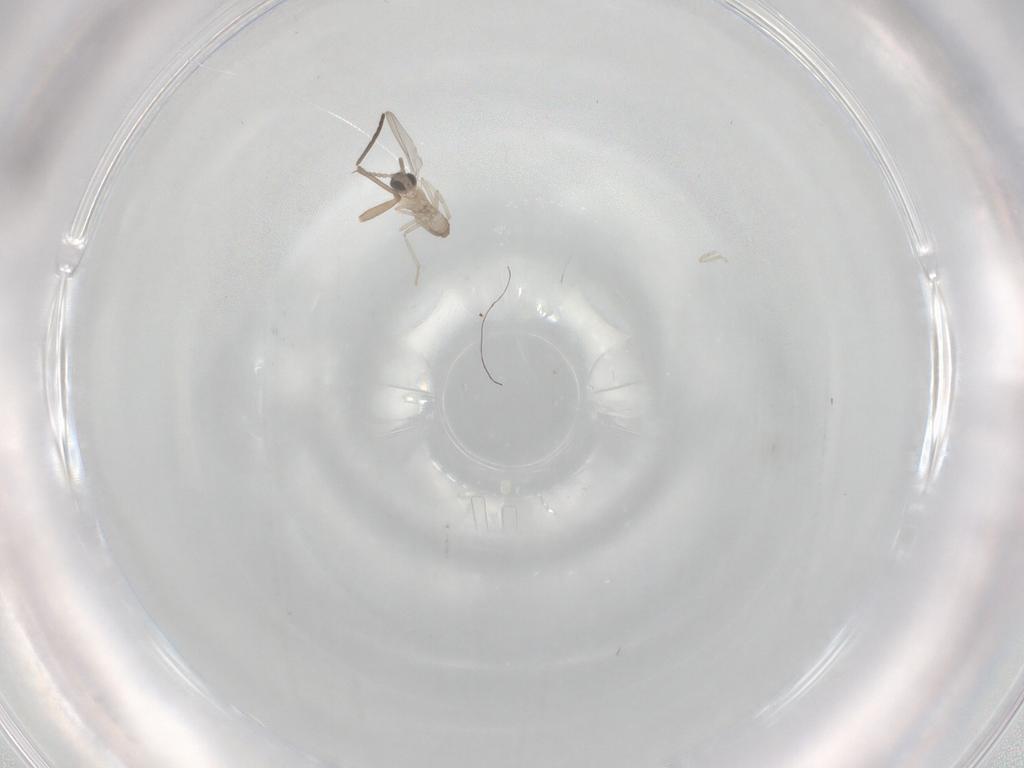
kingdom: Animalia
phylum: Arthropoda
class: Insecta
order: Diptera
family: Cecidomyiidae
